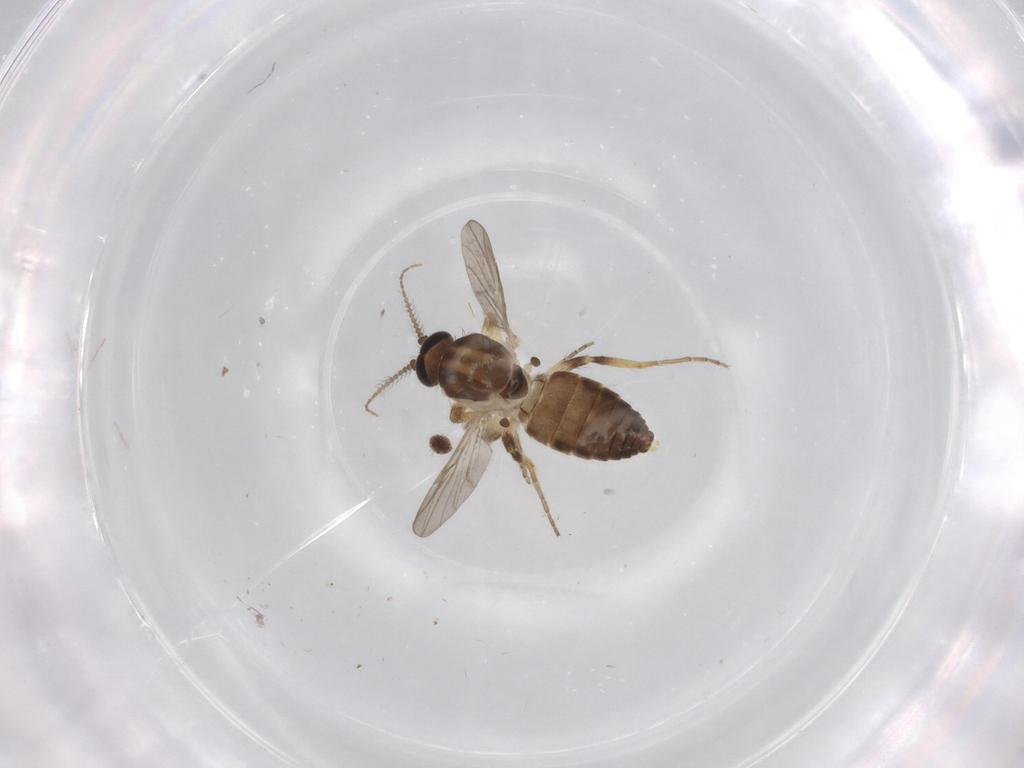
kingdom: Animalia
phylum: Arthropoda
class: Insecta
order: Diptera
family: Ceratopogonidae
